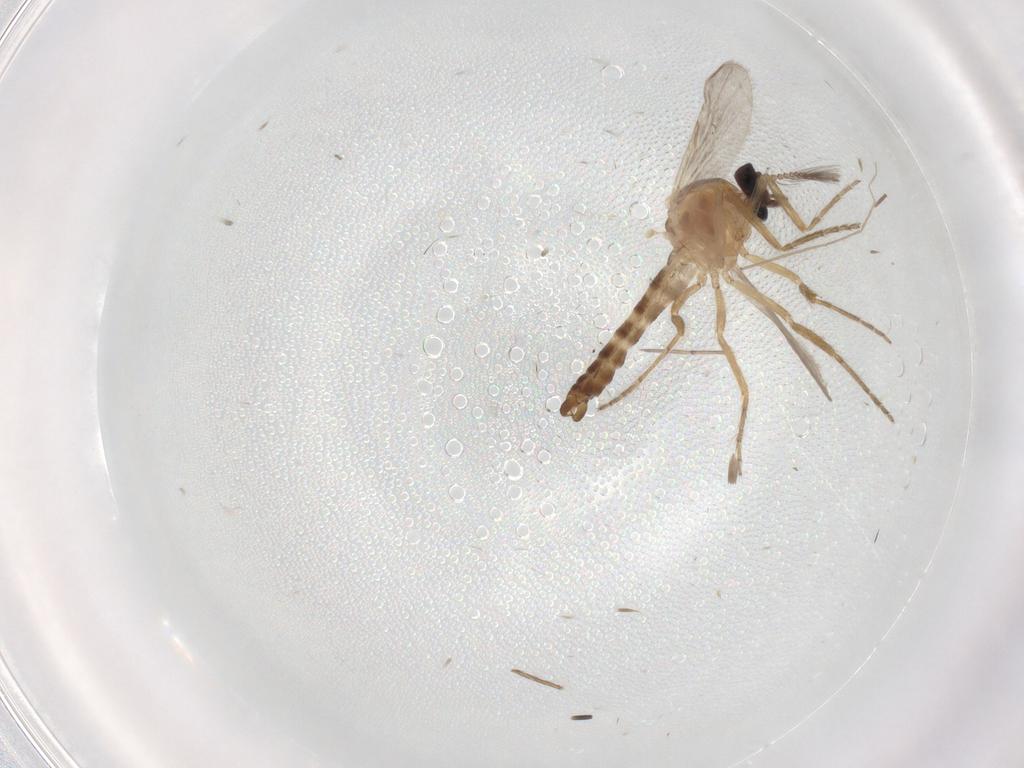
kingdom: Animalia
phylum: Arthropoda
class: Insecta
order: Diptera
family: Ceratopogonidae
